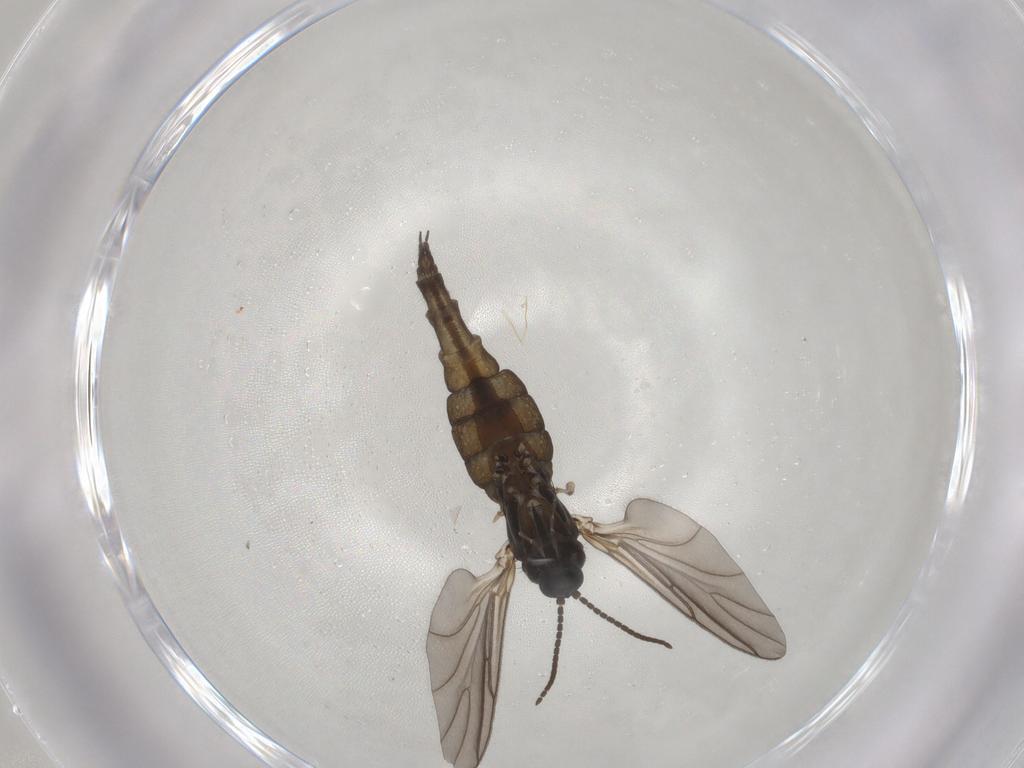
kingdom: Animalia
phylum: Arthropoda
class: Insecta
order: Diptera
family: Sciaridae
